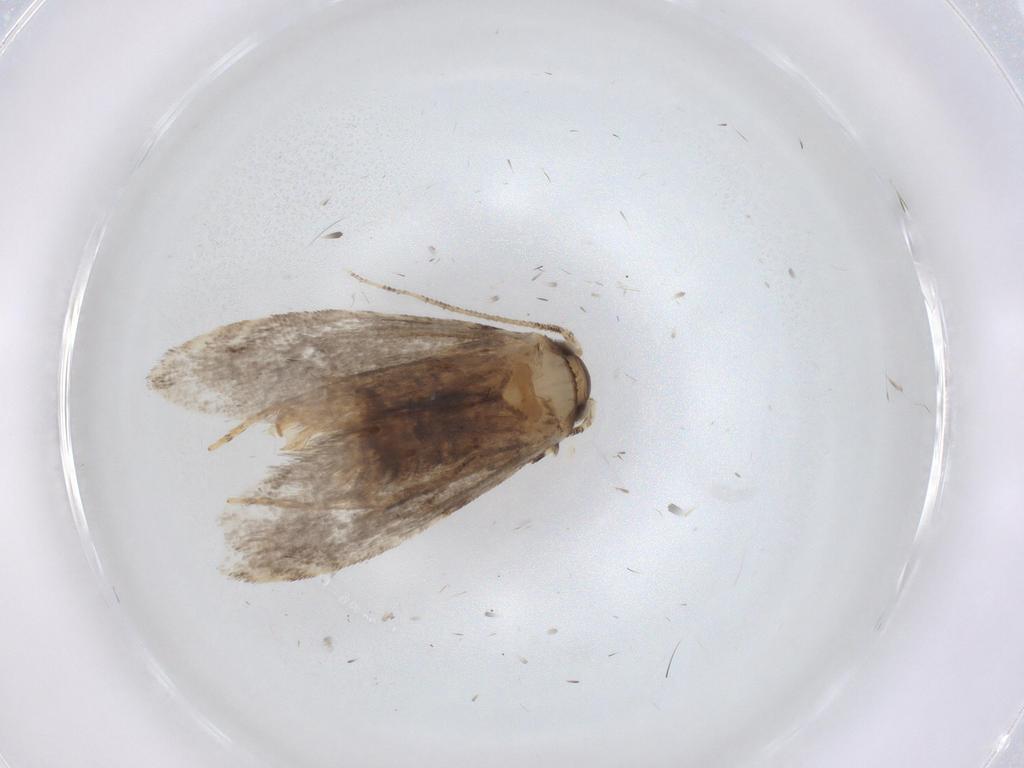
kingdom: Animalia
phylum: Arthropoda
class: Insecta
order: Lepidoptera
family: Tineidae
